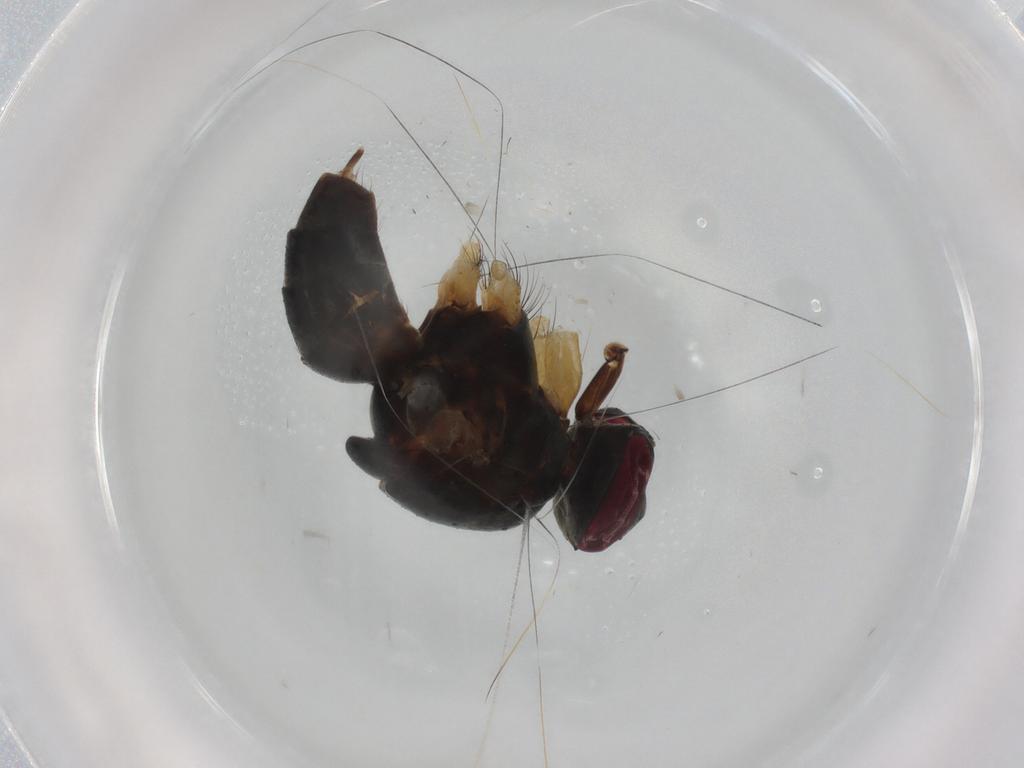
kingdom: Animalia
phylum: Arthropoda
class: Insecta
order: Diptera
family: Muscidae
